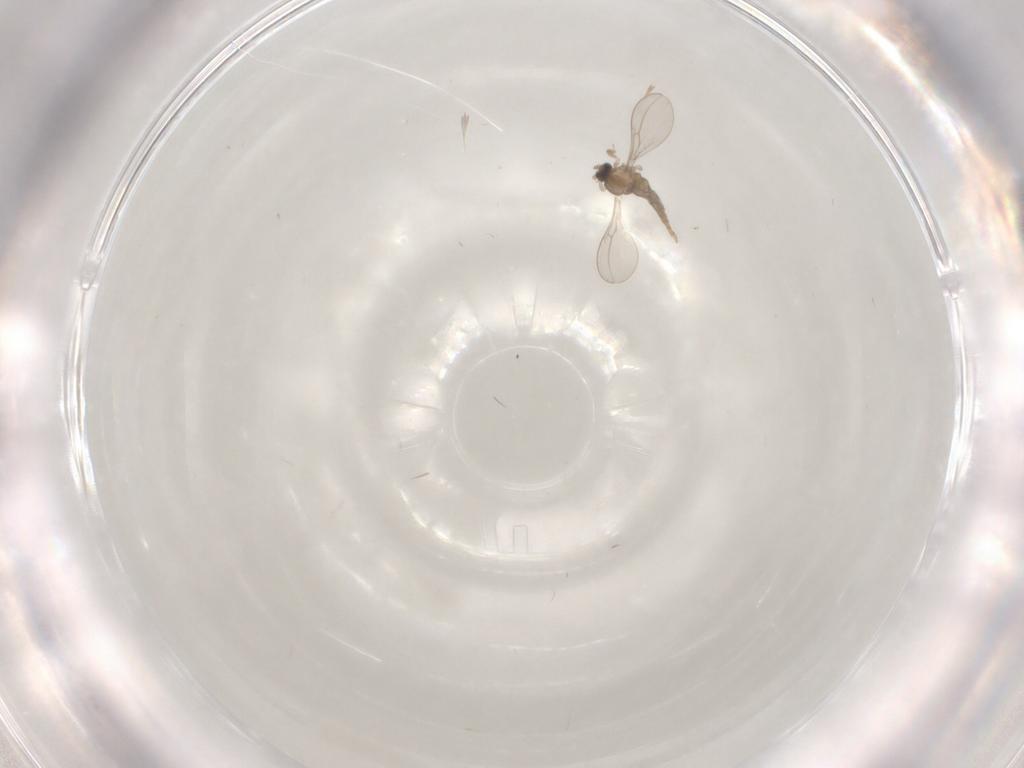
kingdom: Animalia
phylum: Arthropoda
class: Insecta
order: Diptera
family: Cecidomyiidae
